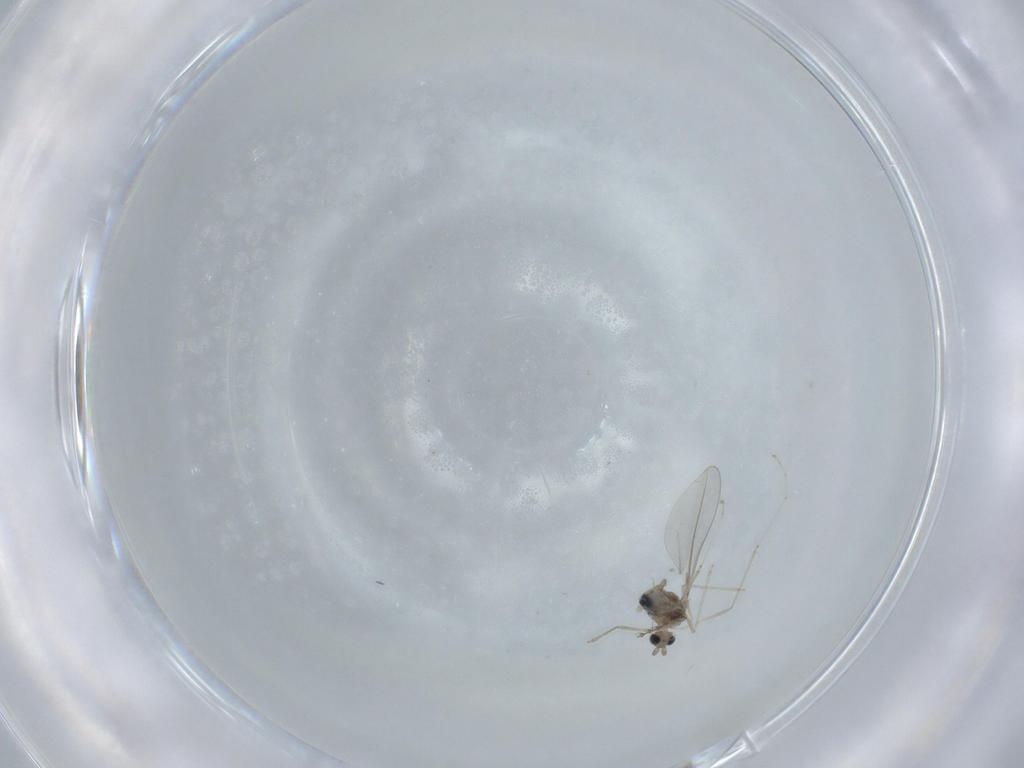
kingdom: Animalia
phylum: Arthropoda
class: Insecta
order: Diptera
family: Cecidomyiidae
